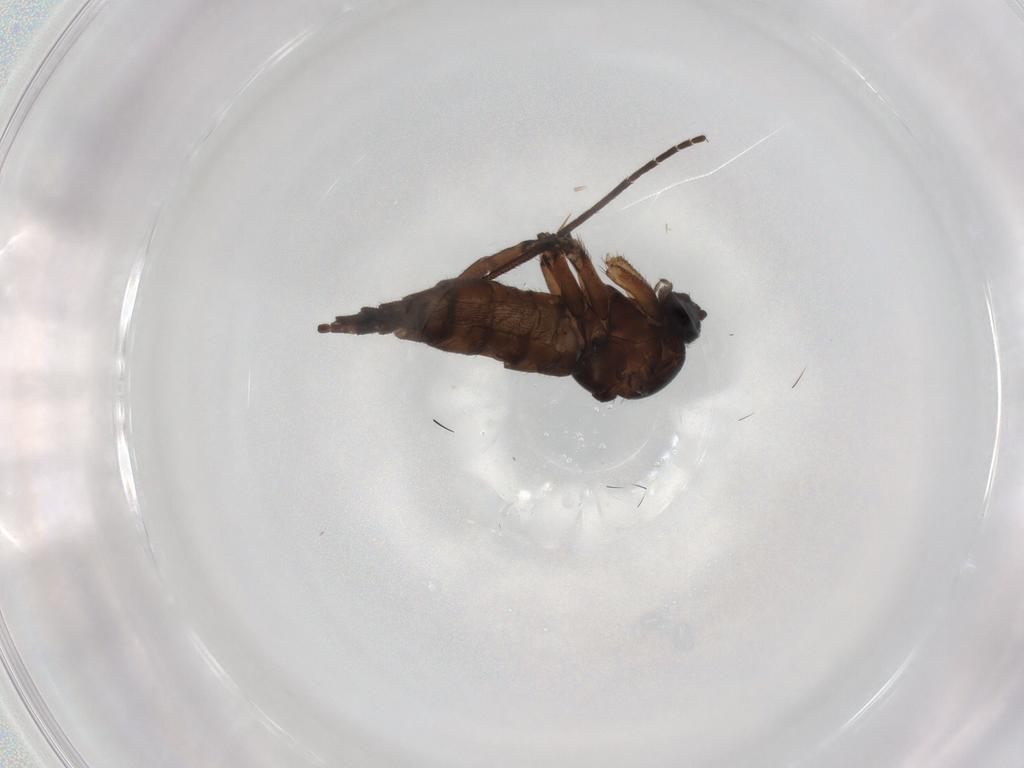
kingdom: Animalia
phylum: Arthropoda
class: Insecta
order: Diptera
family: Sciaridae
